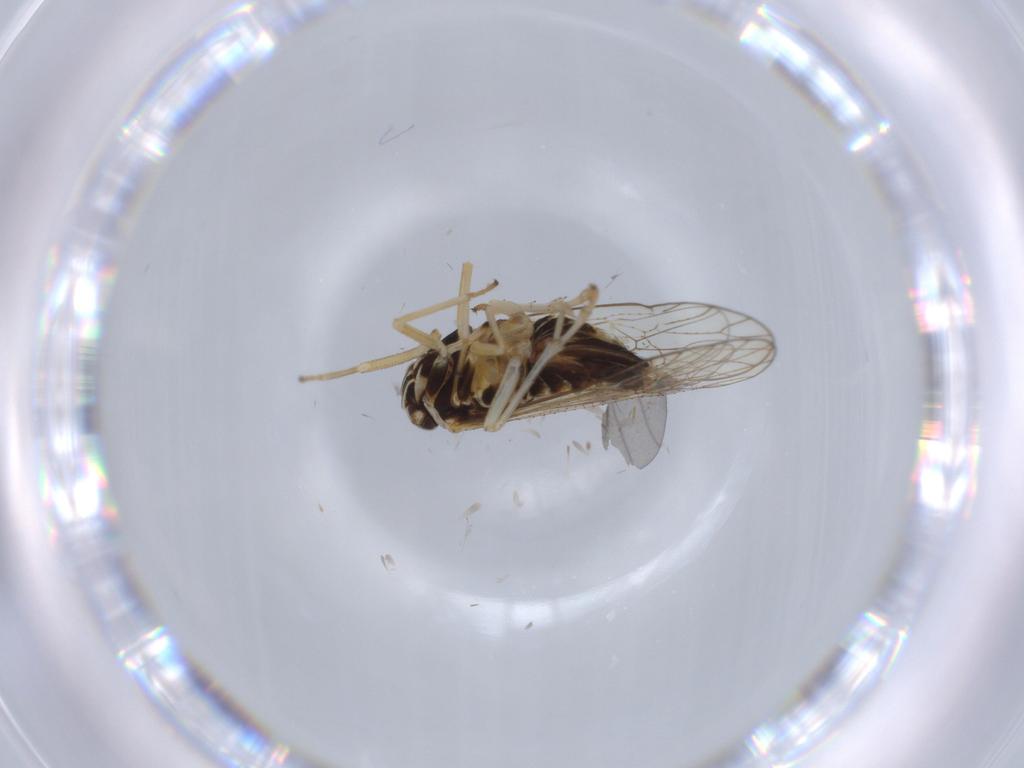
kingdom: Animalia
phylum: Arthropoda
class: Insecta
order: Hemiptera
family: Cicadellidae
